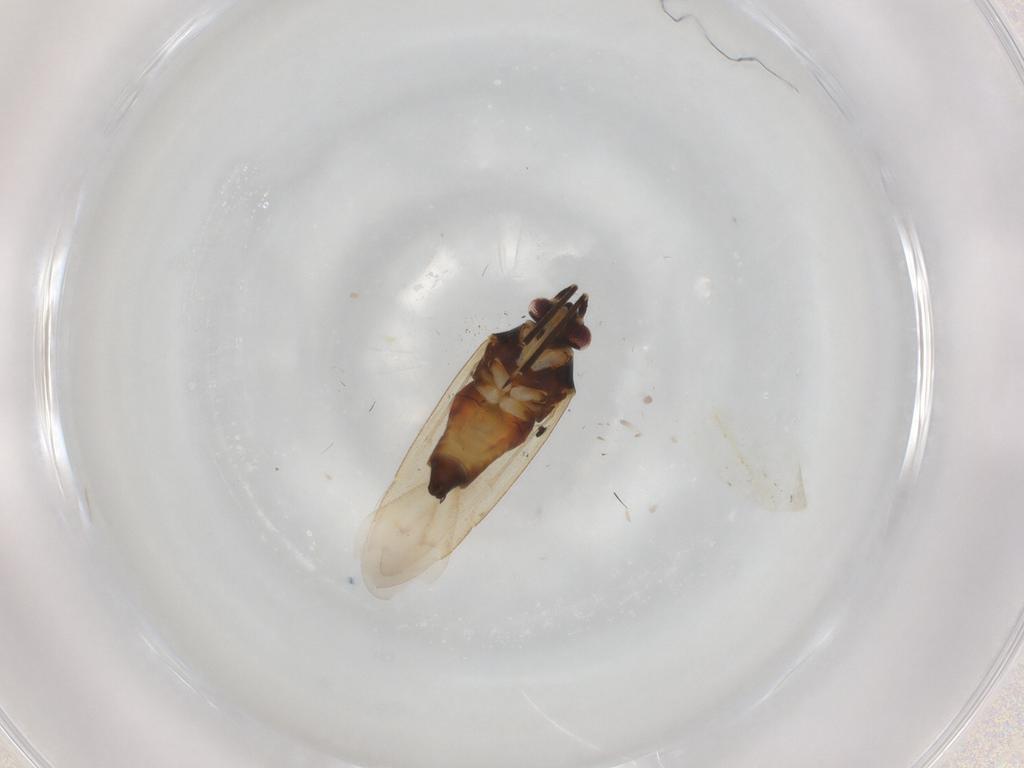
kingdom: Animalia
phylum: Arthropoda
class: Insecta
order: Hemiptera
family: Miridae
